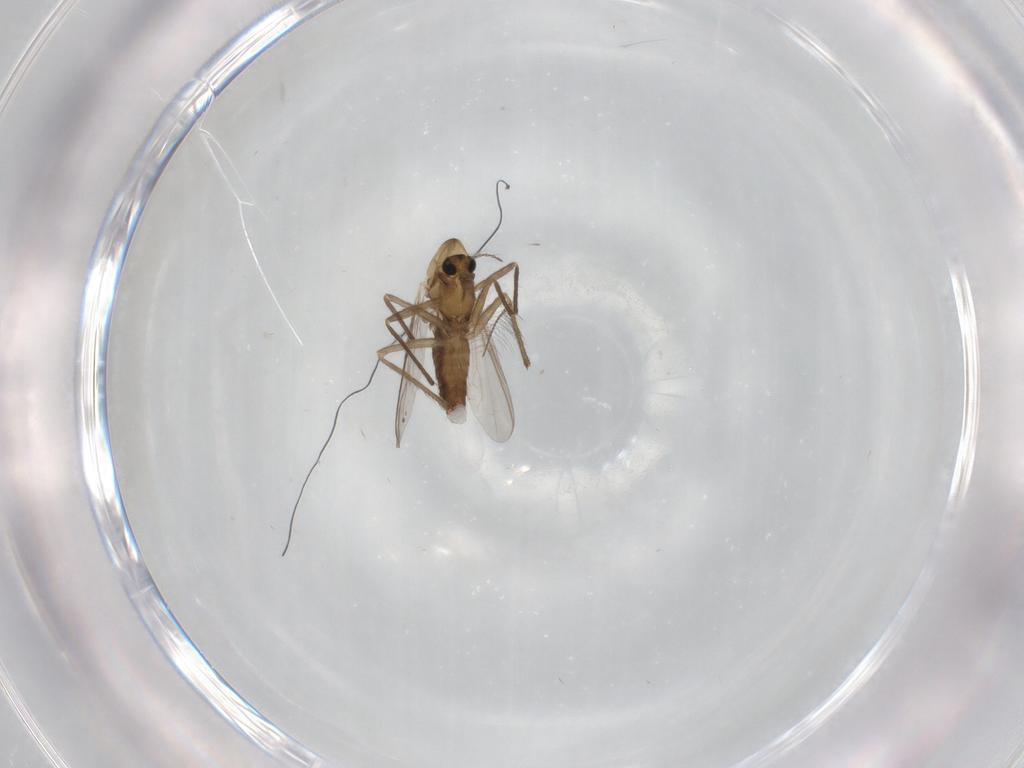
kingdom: Animalia
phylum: Arthropoda
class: Insecta
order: Diptera
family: Chironomidae
